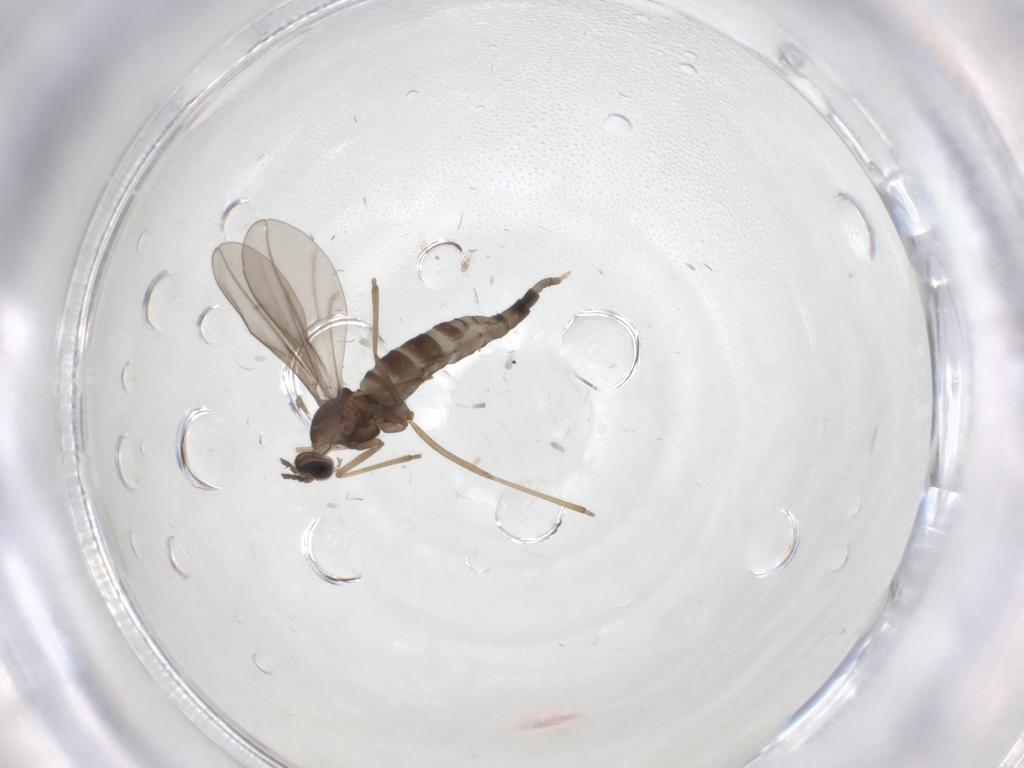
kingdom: Animalia
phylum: Arthropoda
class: Insecta
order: Diptera
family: Cecidomyiidae
